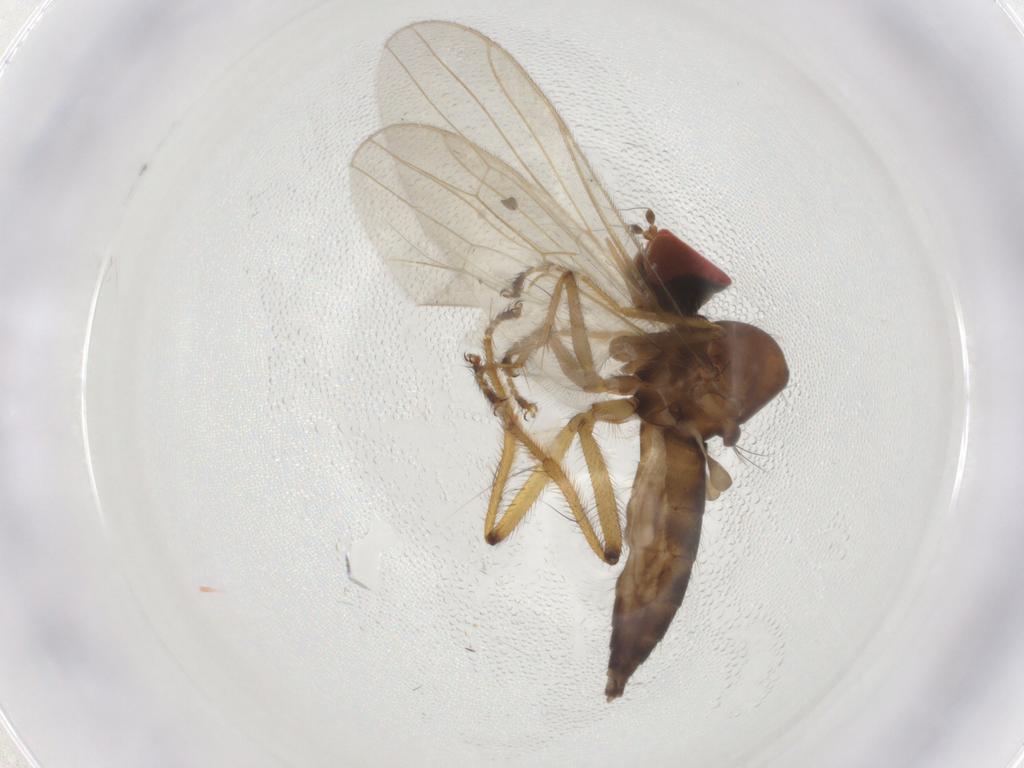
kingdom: Animalia
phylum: Arthropoda
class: Insecta
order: Diptera
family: Hybotidae
